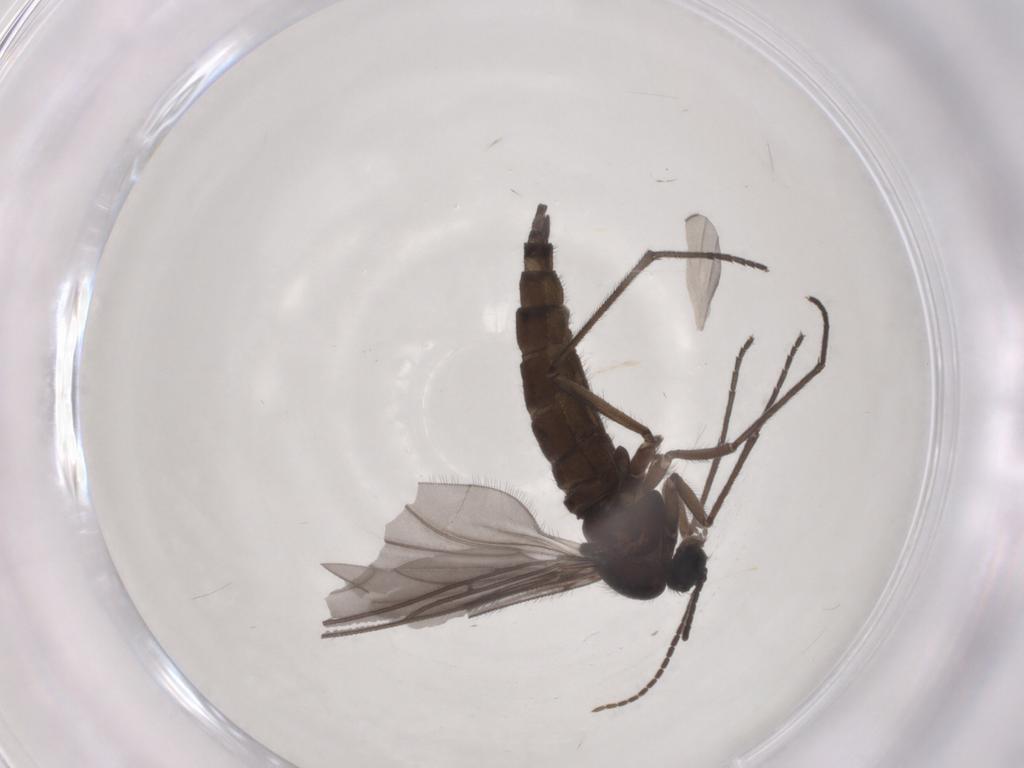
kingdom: Animalia
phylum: Arthropoda
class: Insecta
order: Diptera
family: Sciaridae
